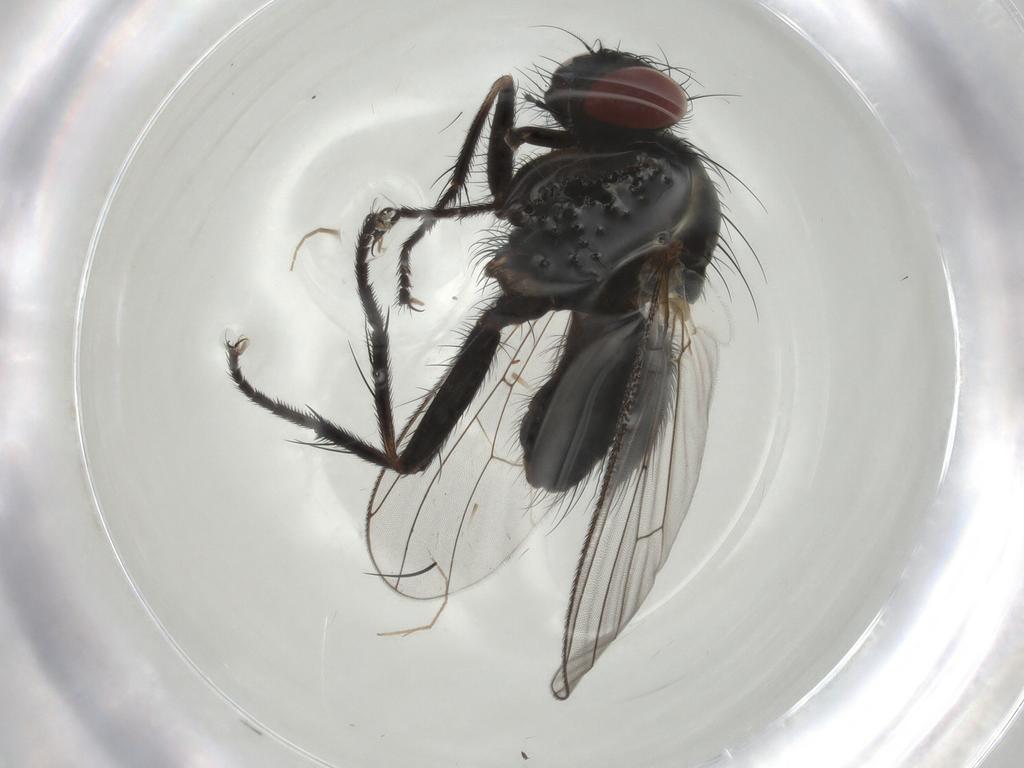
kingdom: Animalia
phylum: Arthropoda
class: Insecta
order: Diptera
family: Muscidae
